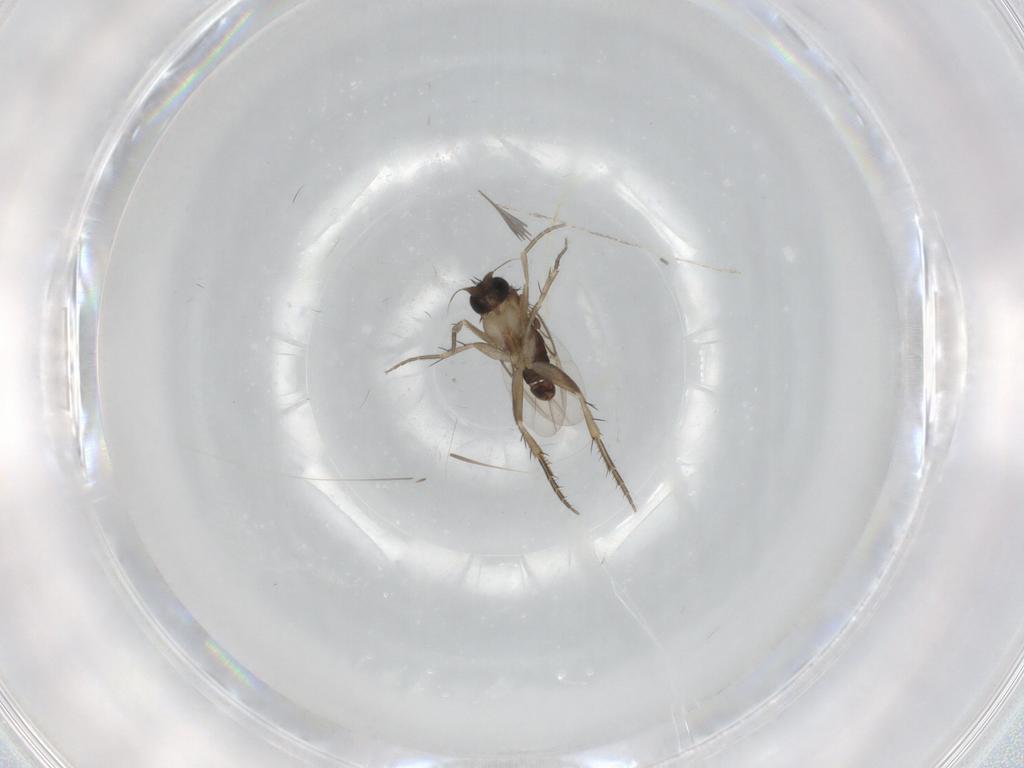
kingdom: Animalia
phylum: Arthropoda
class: Insecta
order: Diptera
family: Phoridae
